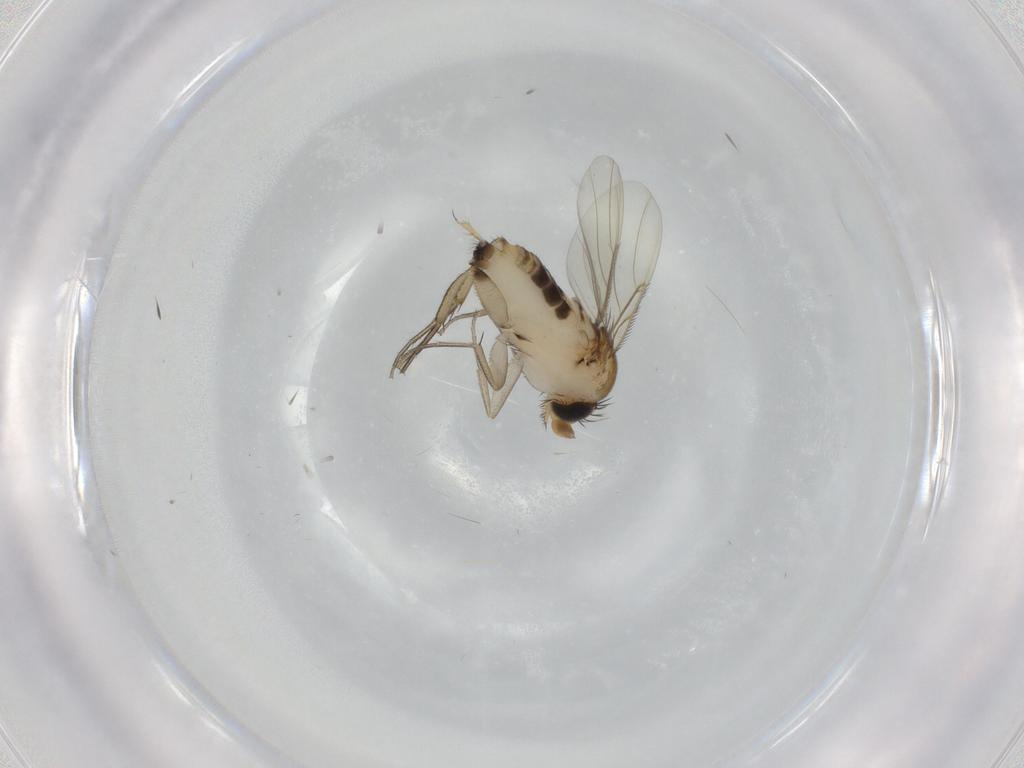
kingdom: Animalia
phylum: Arthropoda
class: Insecta
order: Diptera
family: Phoridae
